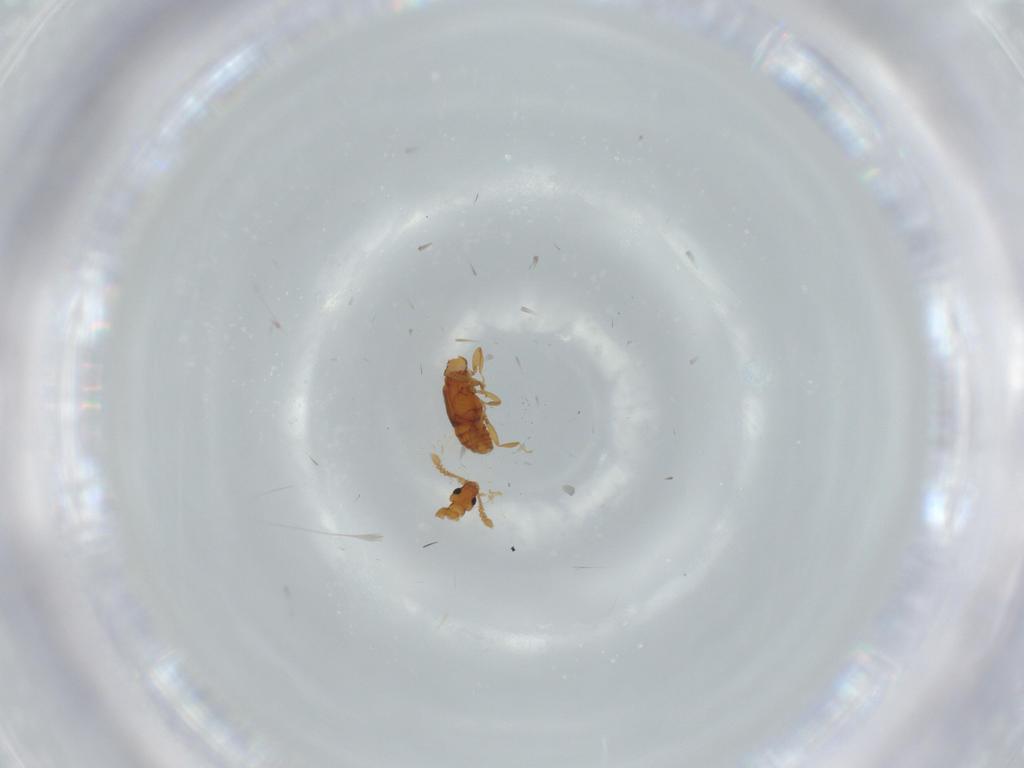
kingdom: Animalia
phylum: Arthropoda
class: Insecta
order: Coleoptera
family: Staphylinidae
